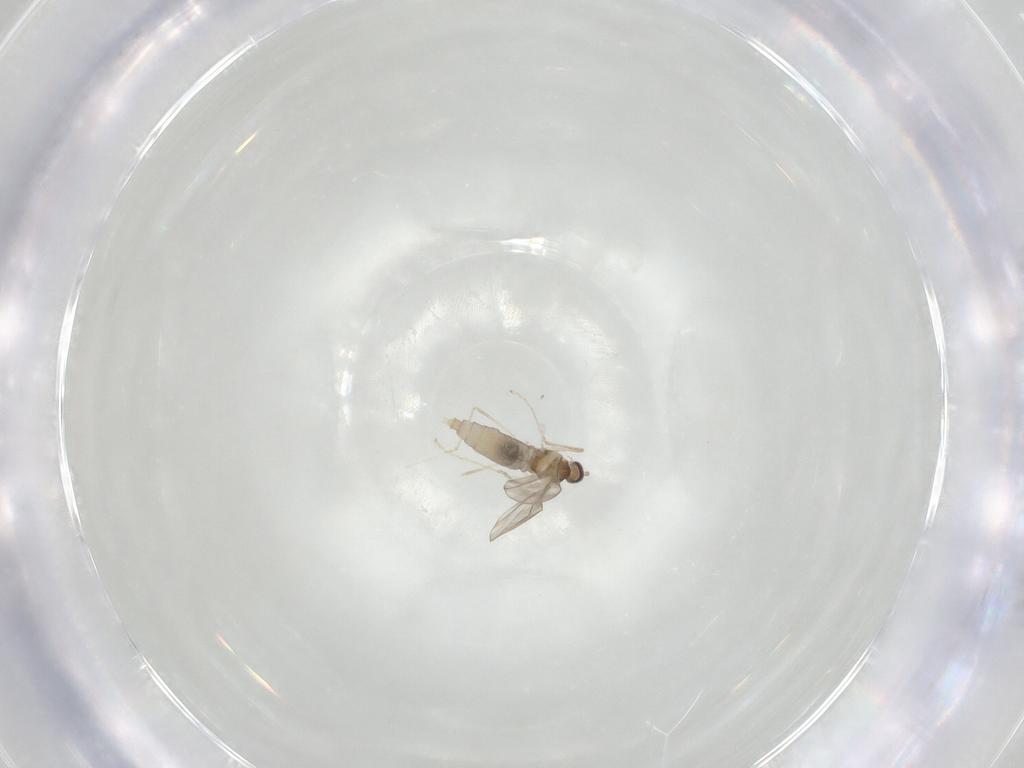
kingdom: Animalia
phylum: Arthropoda
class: Insecta
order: Diptera
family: Cecidomyiidae
